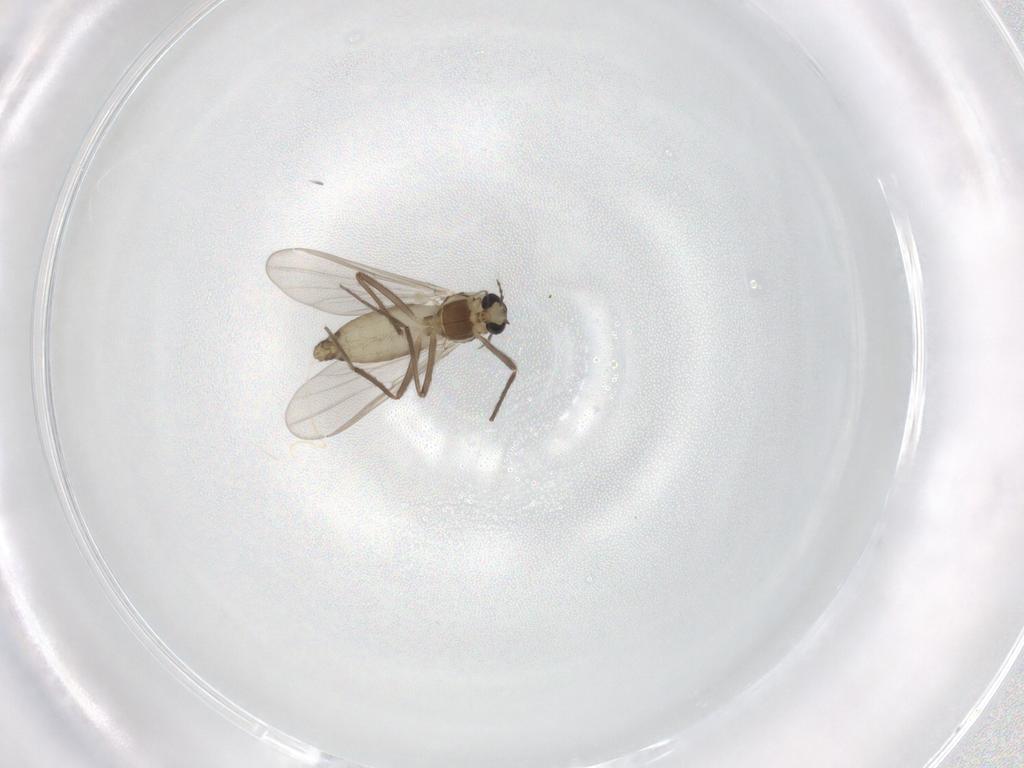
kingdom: Animalia
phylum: Arthropoda
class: Insecta
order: Diptera
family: Chironomidae
